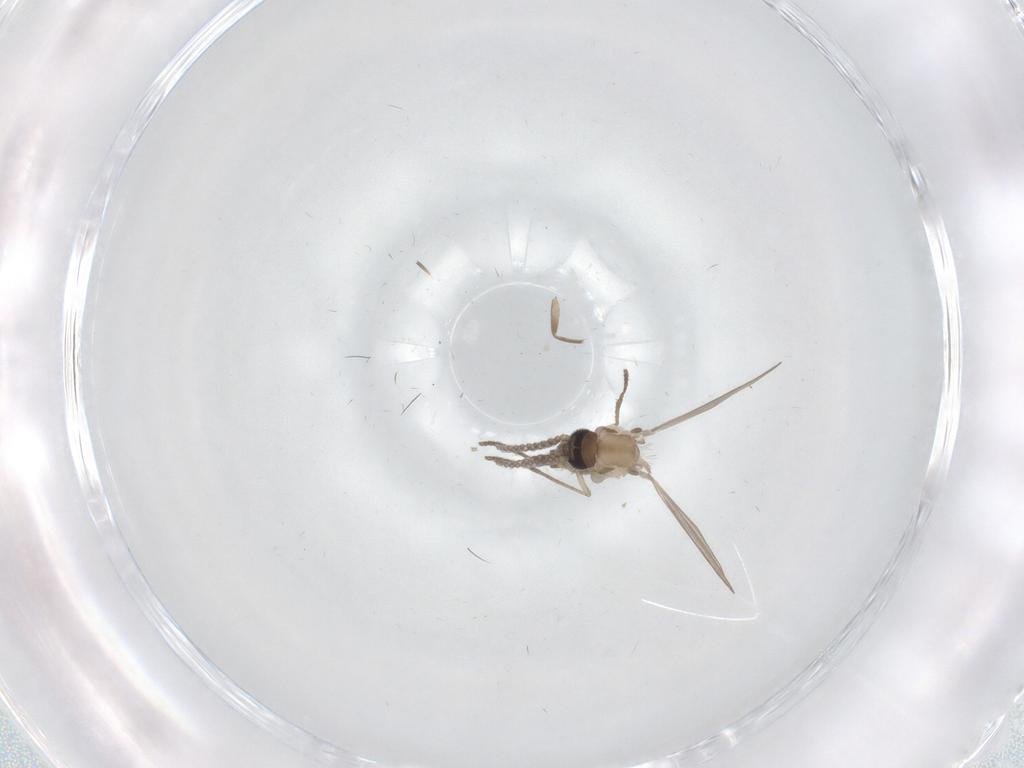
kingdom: Animalia
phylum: Arthropoda
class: Insecta
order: Diptera
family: Psychodidae
